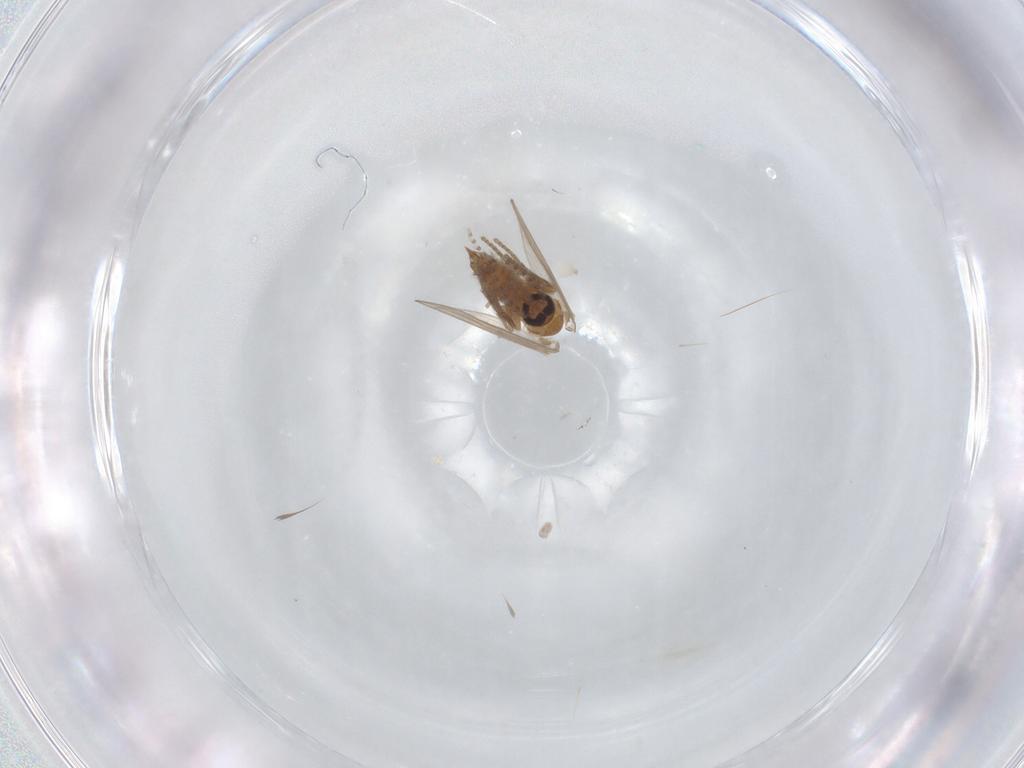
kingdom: Animalia
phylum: Arthropoda
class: Insecta
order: Diptera
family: Psychodidae
